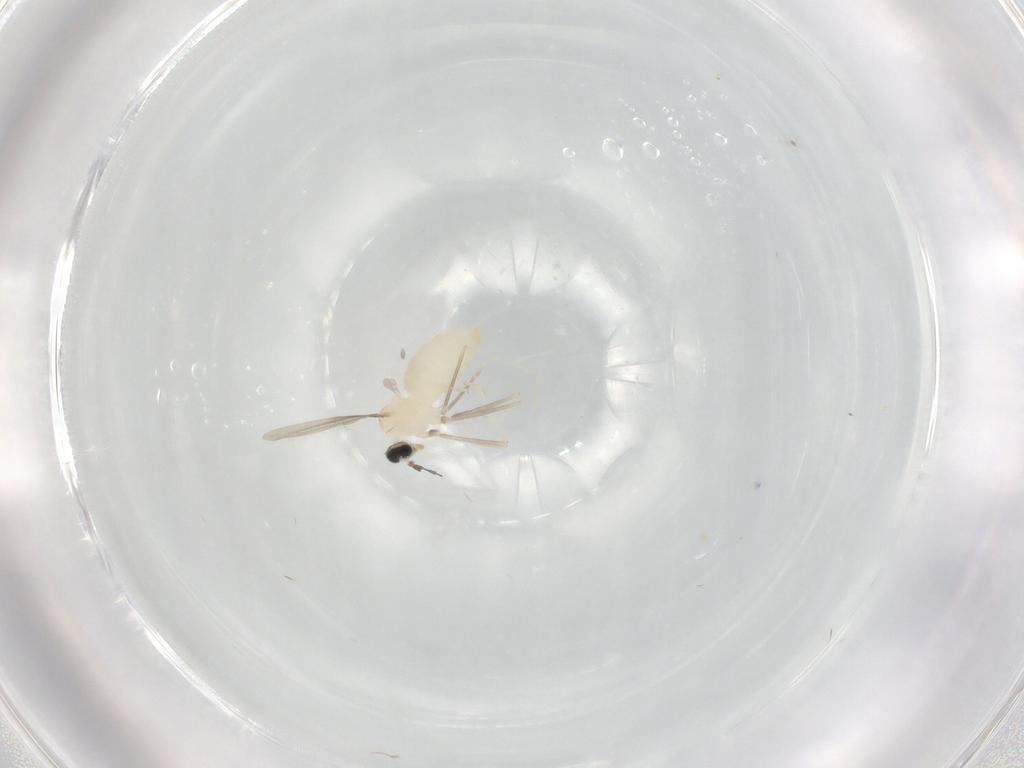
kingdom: Animalia
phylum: Arthropoda
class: Insecta
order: Diptera
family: Cecidomyiidae
